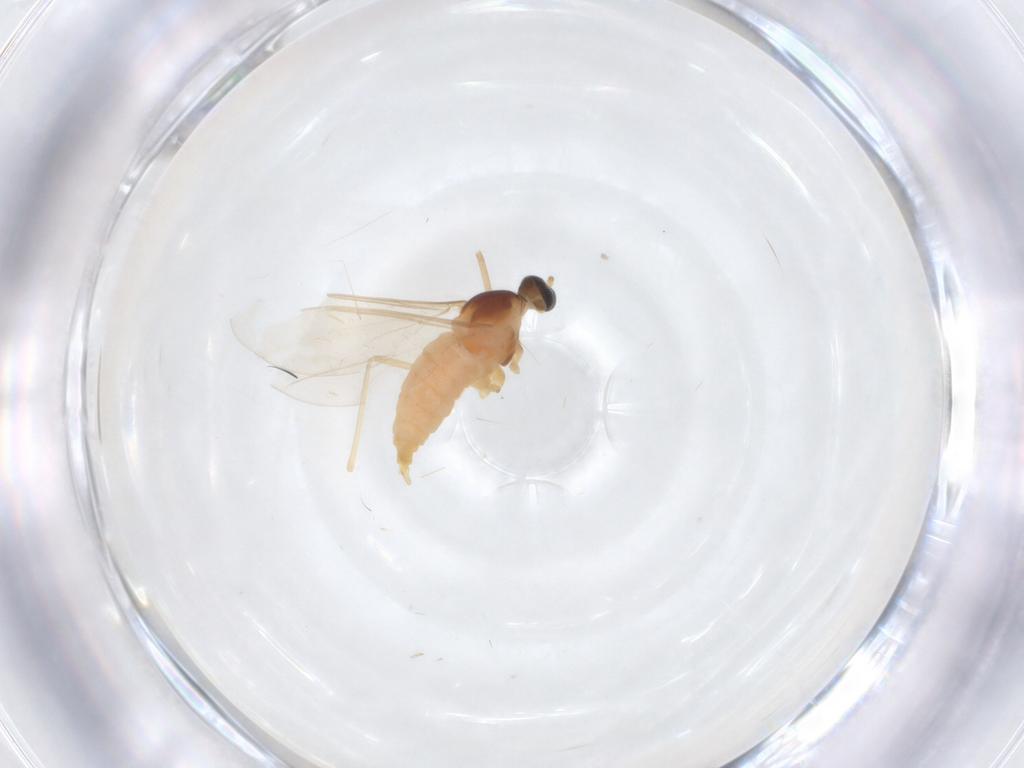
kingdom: Animalia
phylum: Arthropoda
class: Insecta
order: Diptera
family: Cecidomyiidae
